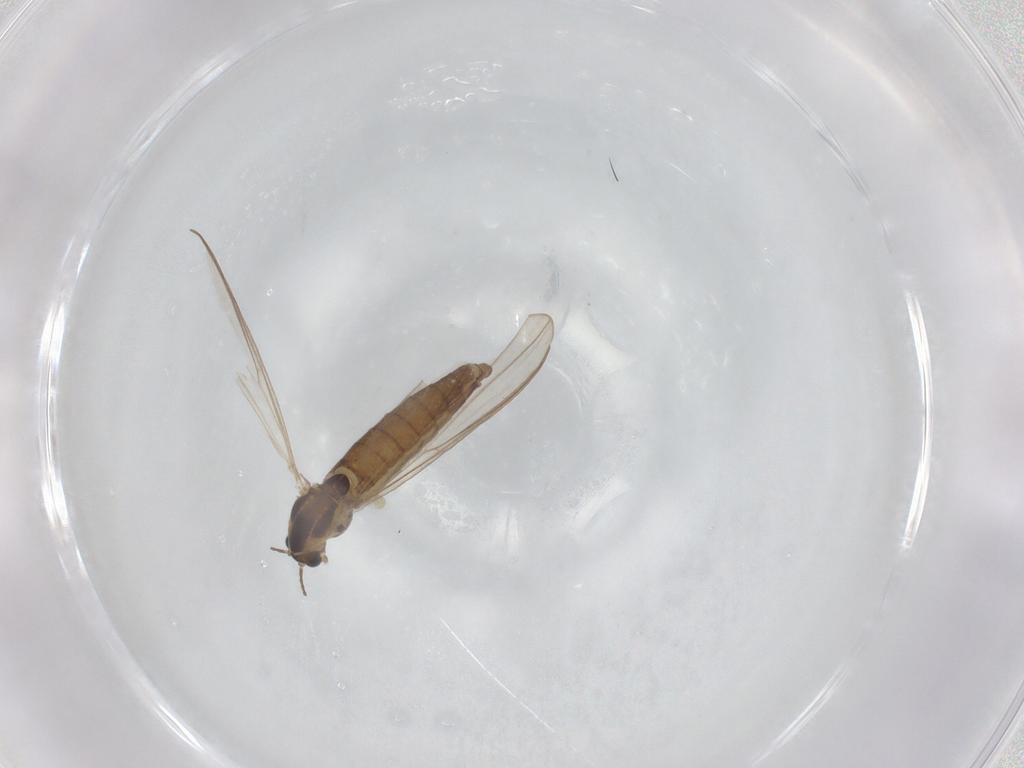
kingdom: Animalia
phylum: Arthropoda
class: Insecta
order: Diptera
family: Chironomidae
